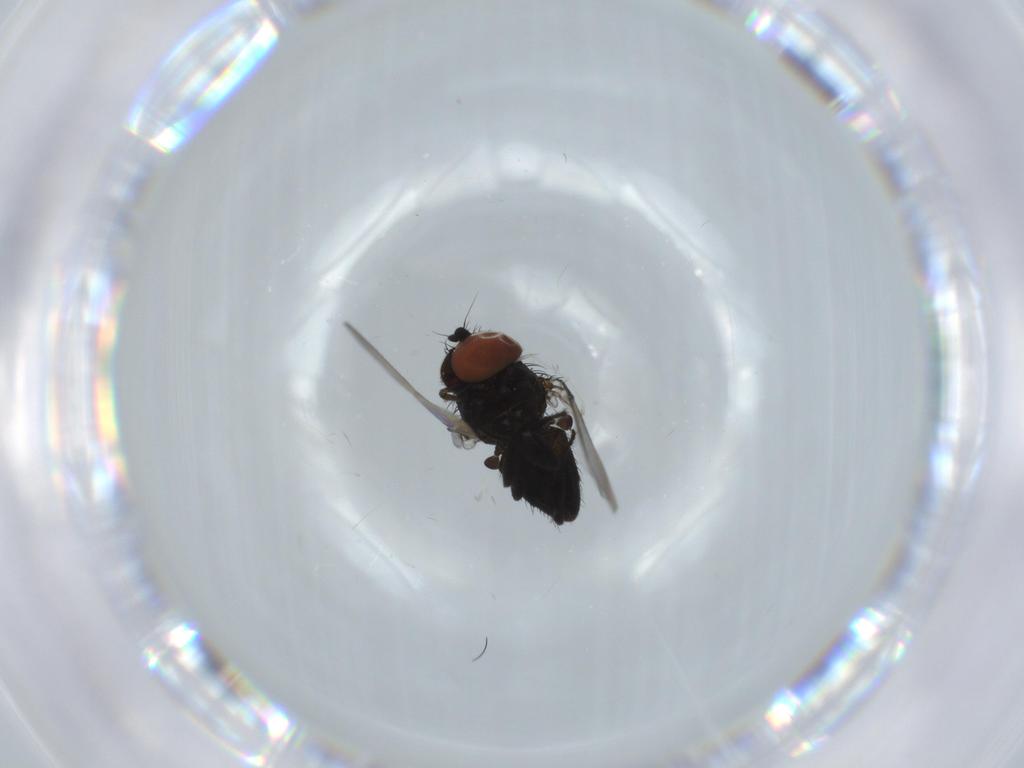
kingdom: Animalia
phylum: Arthropoda
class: Insecta
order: Diptera
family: Milichiidae
